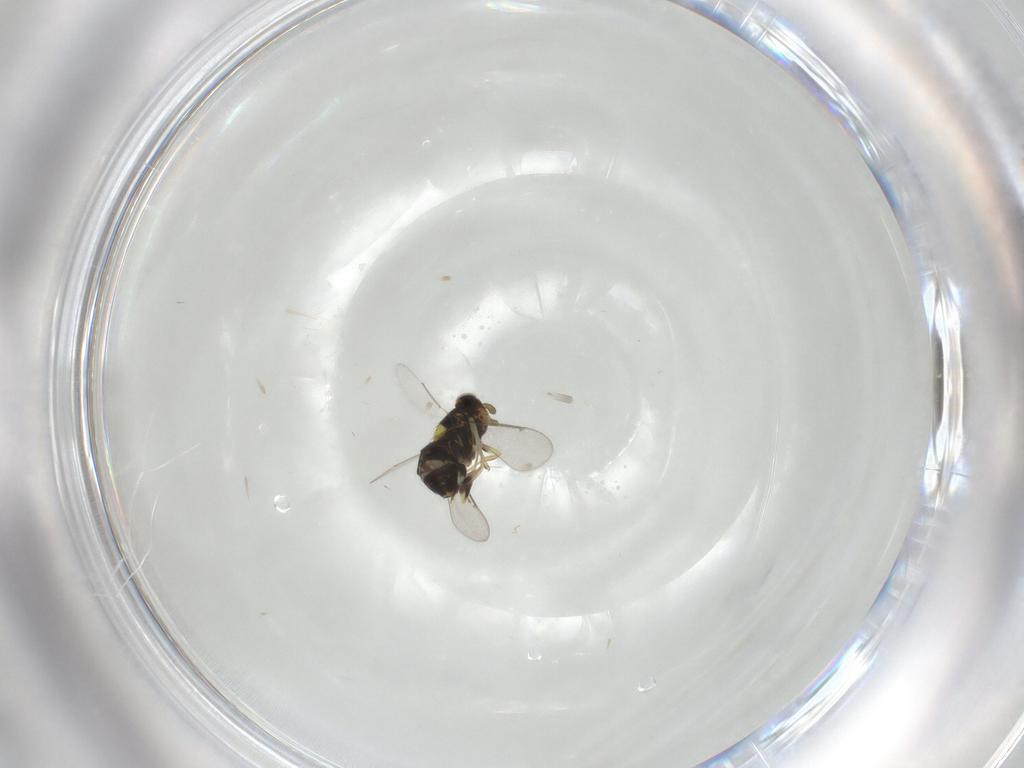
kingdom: Animalia
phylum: Arthropoda
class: Insecta
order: Hymenoptera
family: Aphelinidae
